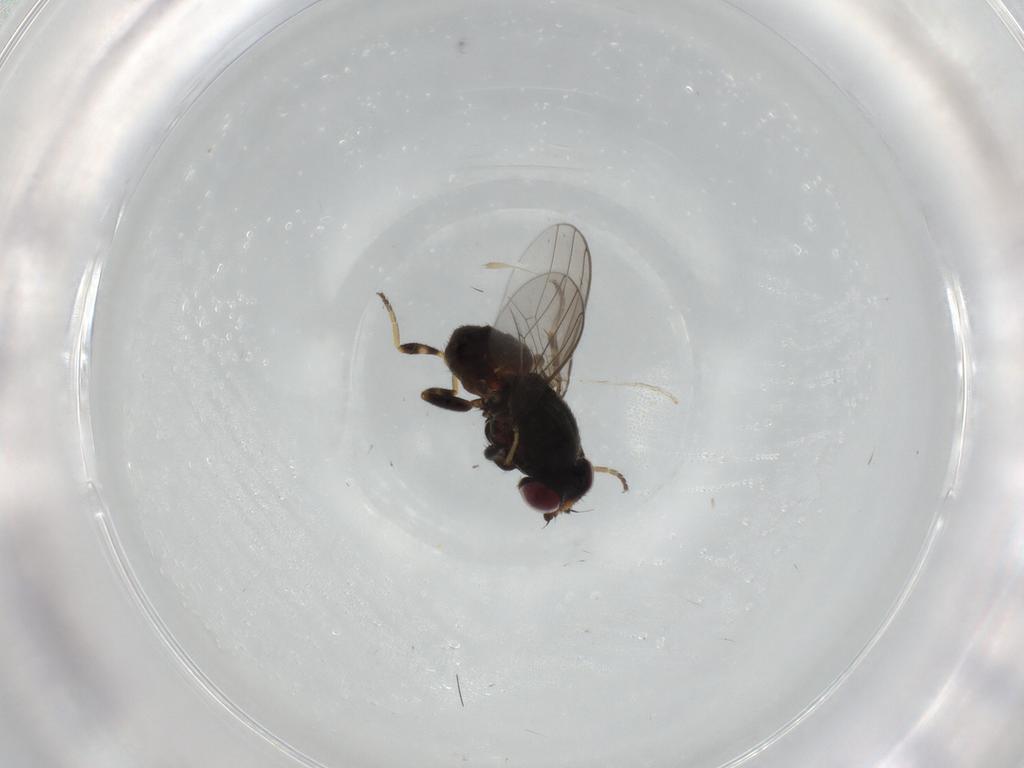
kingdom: Animalia
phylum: Arthropoda
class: Insecta
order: Diptera
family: Chloropidae
